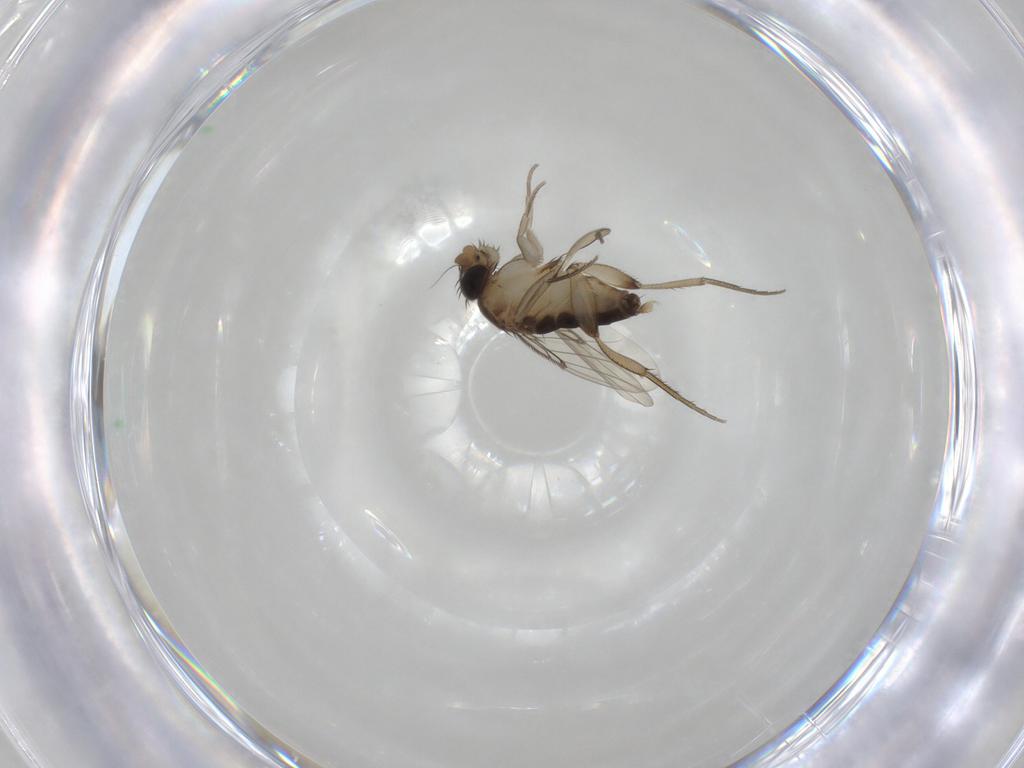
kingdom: Animalia
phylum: Arthropoda
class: Insecta
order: Diptera
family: Phoridae
